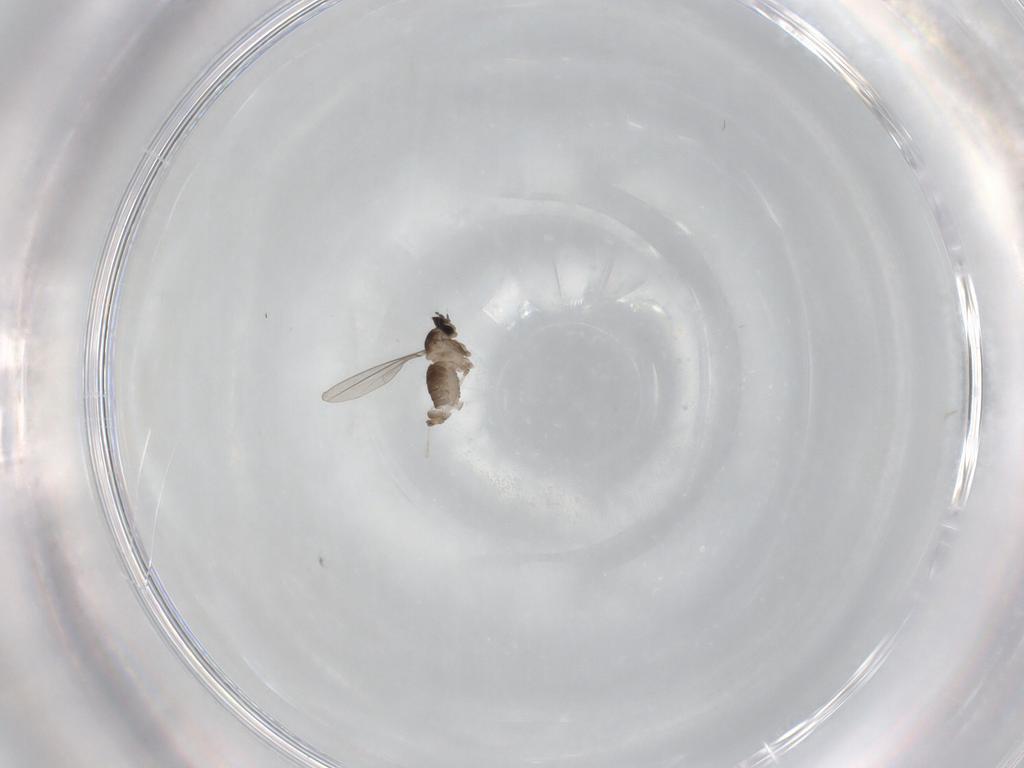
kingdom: Animalia
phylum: Arthropoda
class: Insecta
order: Diptera
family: Cecidomyiidae
